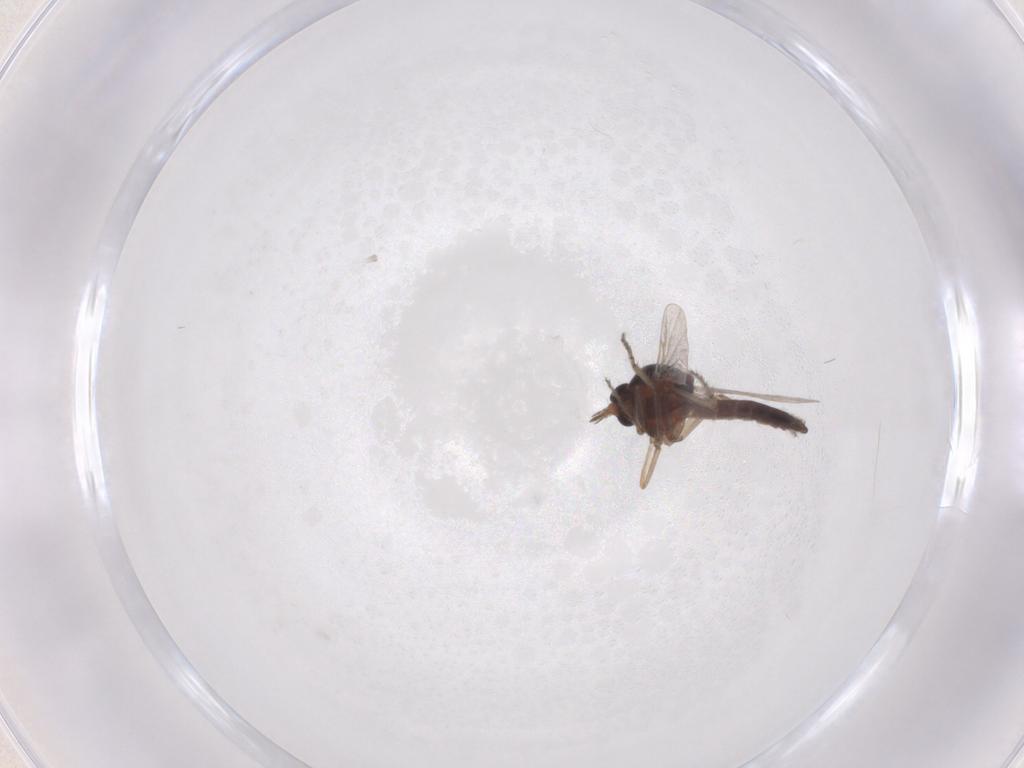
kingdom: Animalia
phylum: Arthropoda
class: Insecta
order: Diptera
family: Ceratopogonidae
